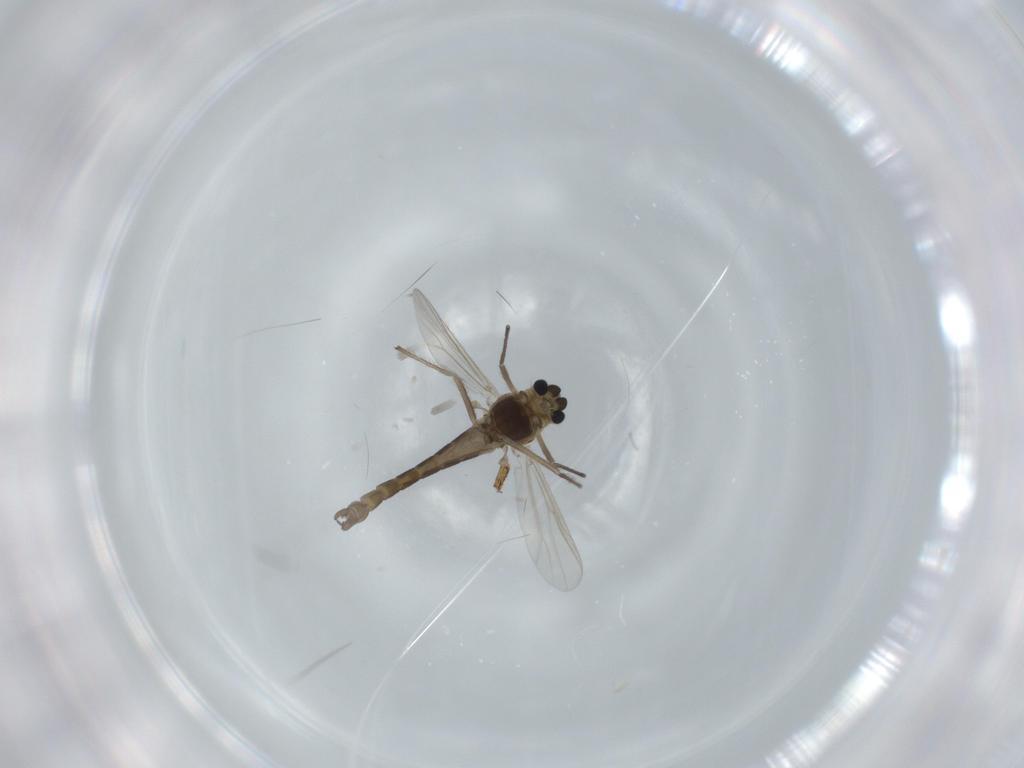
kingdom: Animalia
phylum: Arthropoda
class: Insecta
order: Diptera
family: Chironomidae
